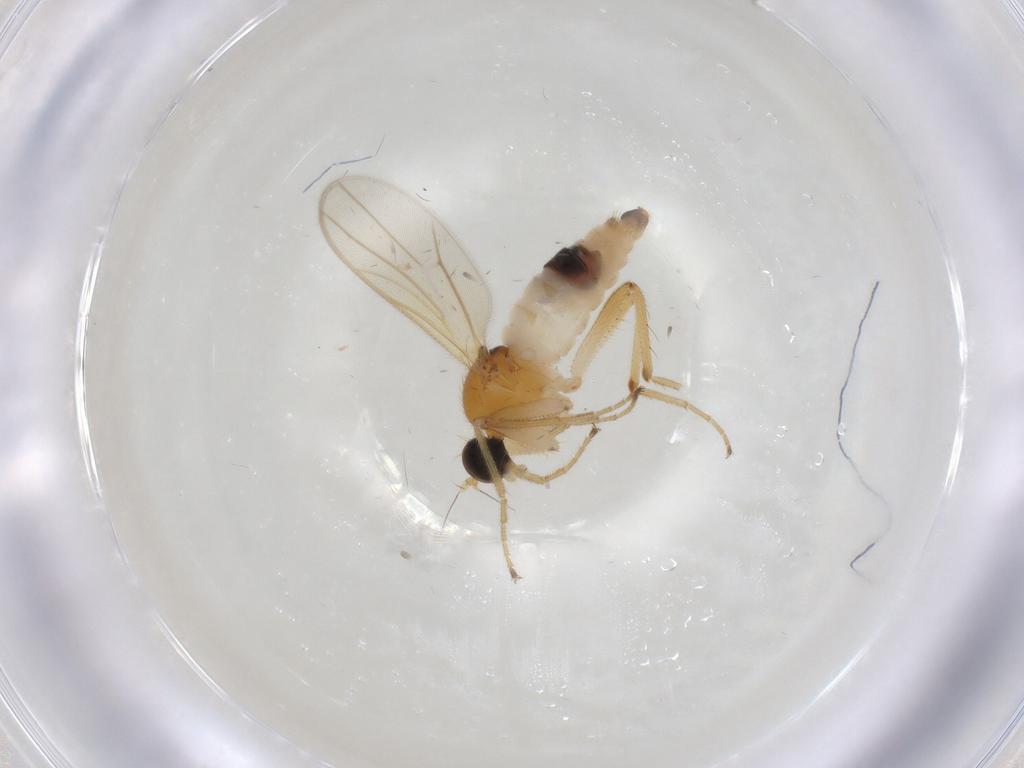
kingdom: Animalia
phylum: Arthropoda
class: Insecta
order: Diptera
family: Hybotidae
